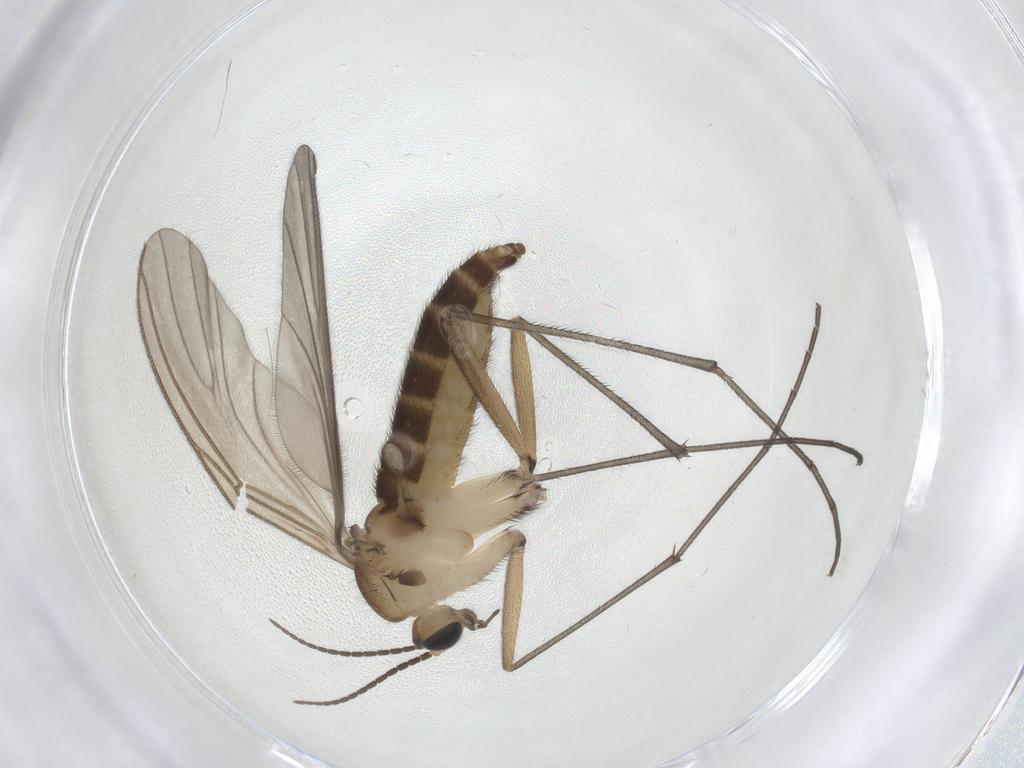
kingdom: Animalia
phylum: Arthropoda
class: Insecta
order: Diptera
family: Sciaridae
